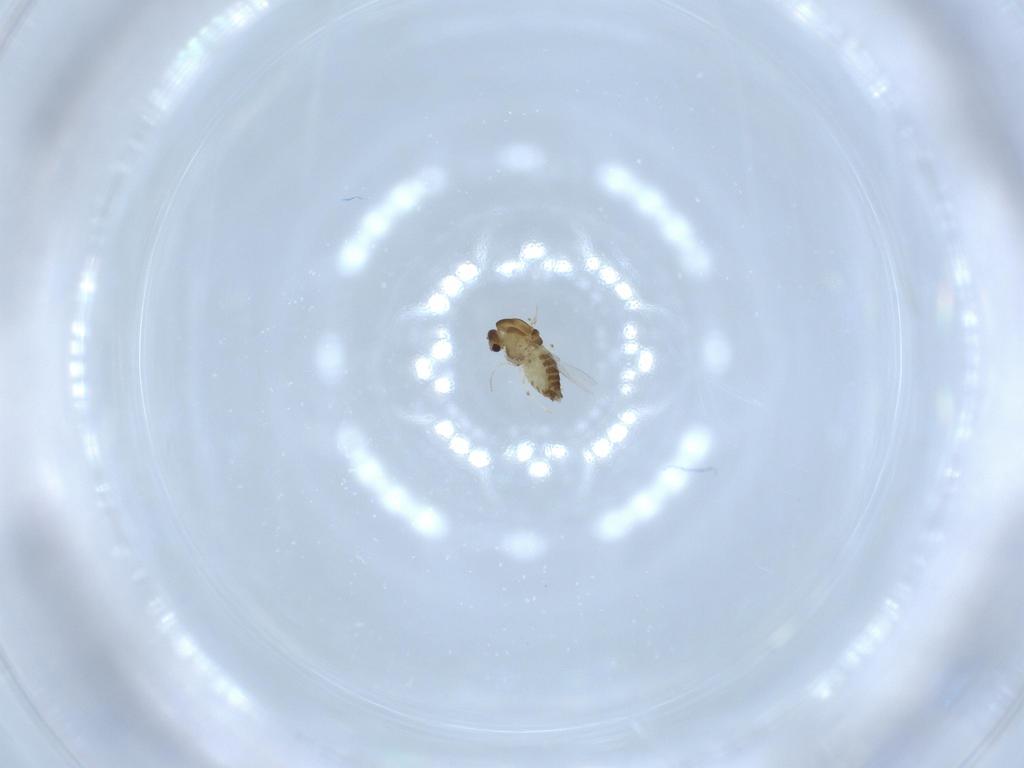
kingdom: Animalia
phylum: Arthropoda
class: Insecta
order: Diptera
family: Chironomidae
